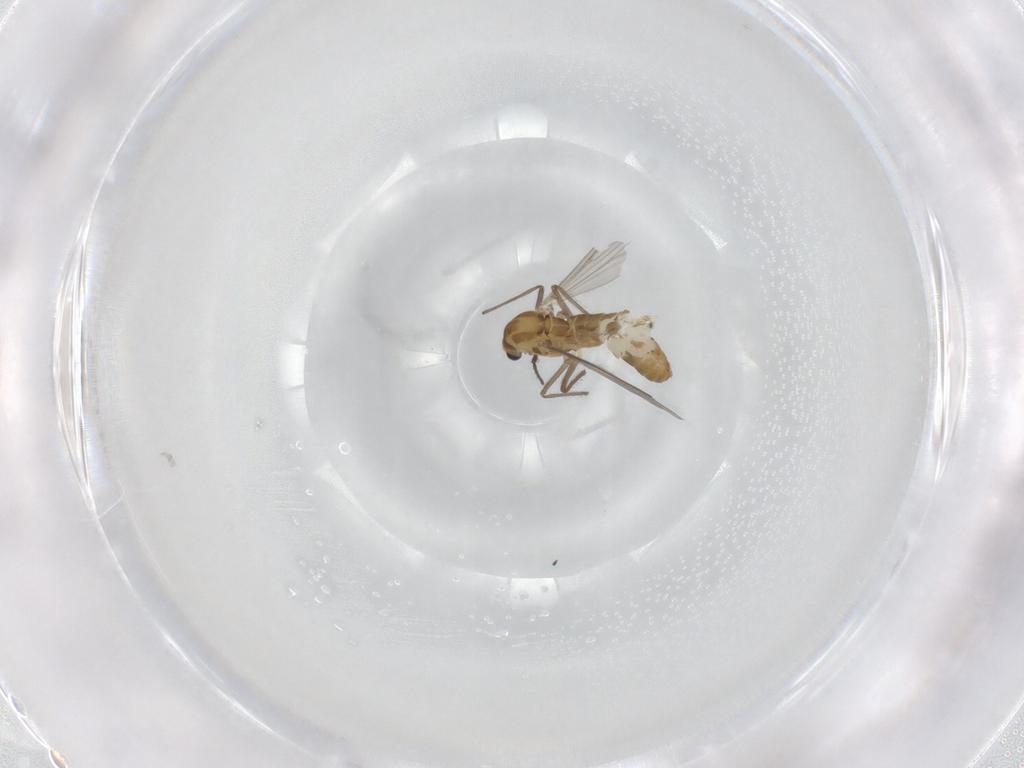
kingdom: Animalia
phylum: Arthropoda
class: Insecta
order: Diptera
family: Chironomidae
